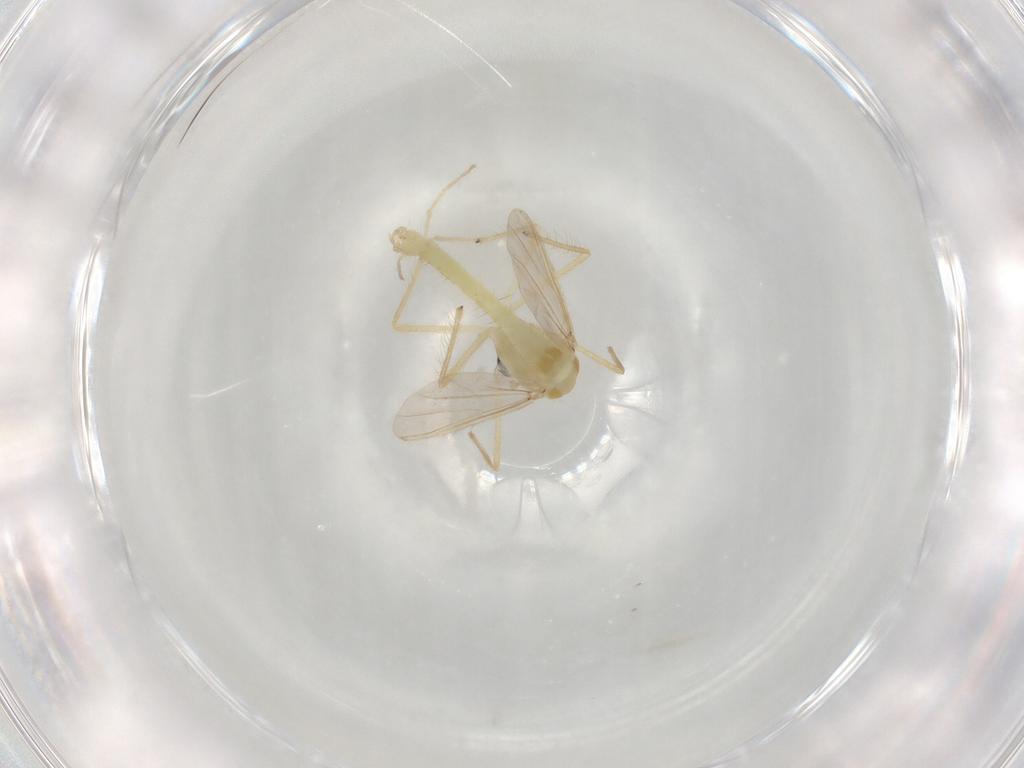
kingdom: Animalia
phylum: Arthropoda
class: Insecta
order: Diptera
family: Chironomidae
